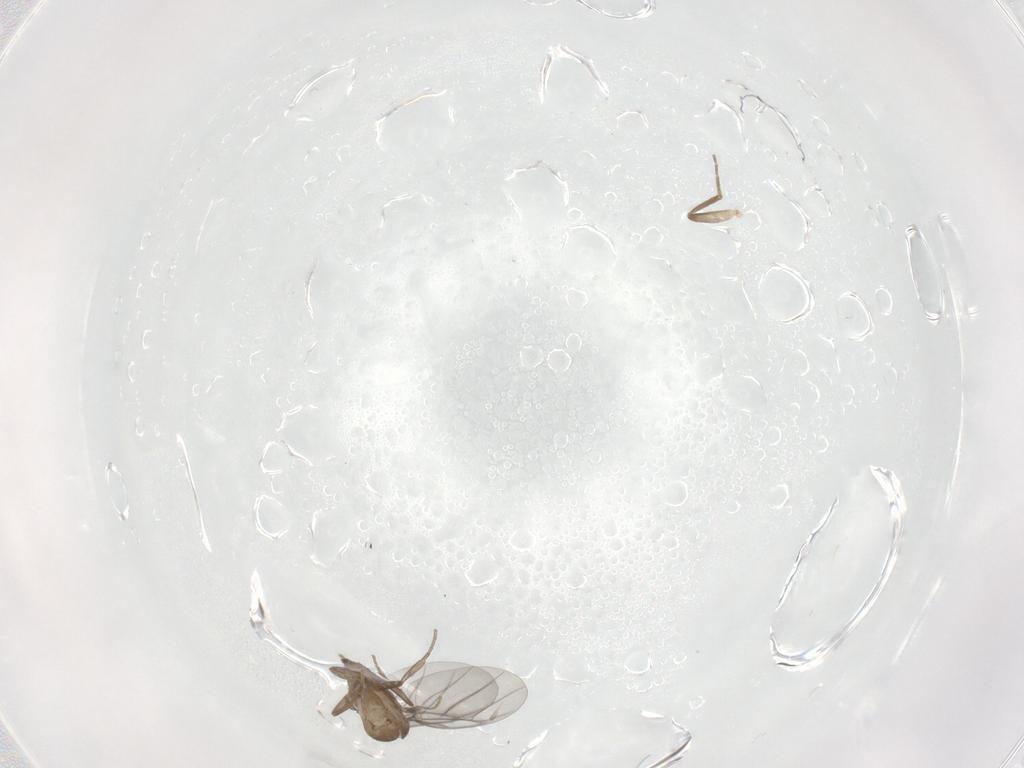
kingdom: Animalia
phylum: Arthropoda
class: Insecta
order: Diptera
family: Cecidomyiidae
